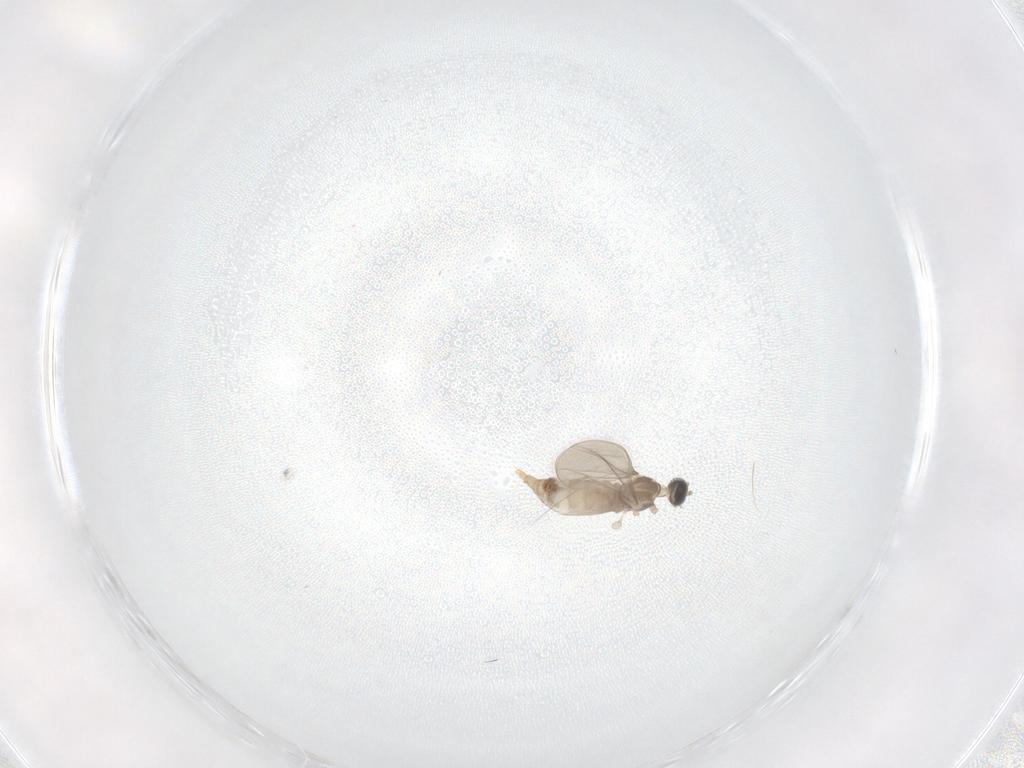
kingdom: Animalia
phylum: Arthropoda
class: Insecta
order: Diptera
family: Cecidomyiidae
